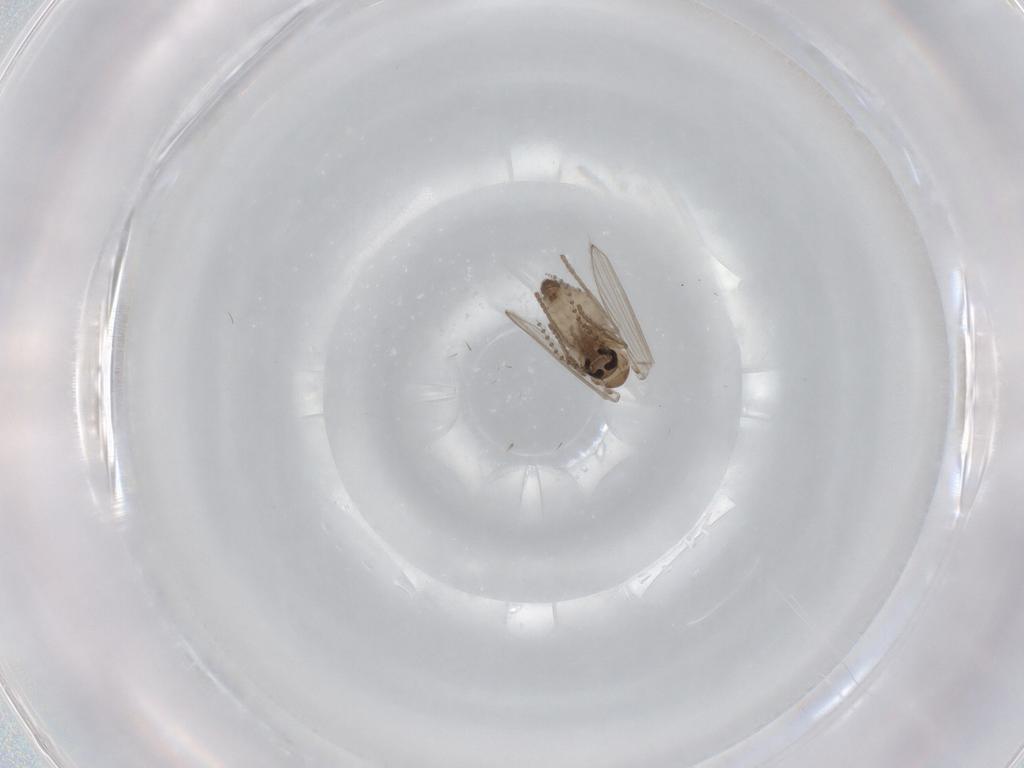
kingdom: Animalia
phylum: Arthropoda
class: Insecta
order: Diptera
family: Psychodidae
